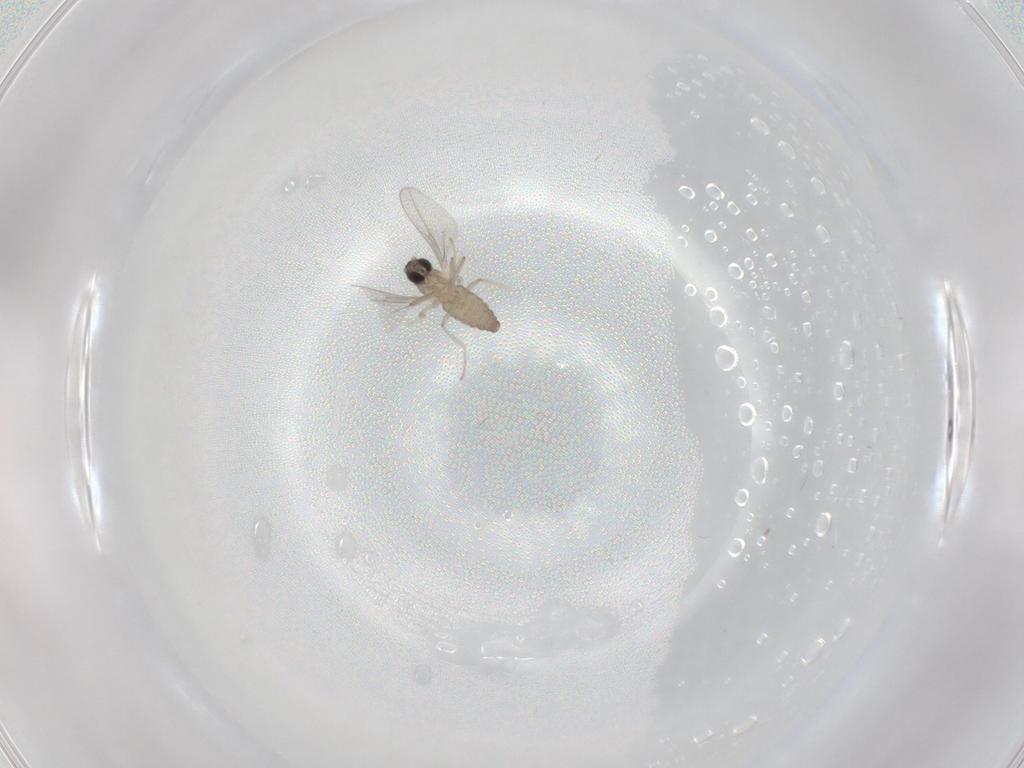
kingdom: Animalia
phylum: Arthropoda
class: Insecta
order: Diptera
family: Cecidomyiidae
